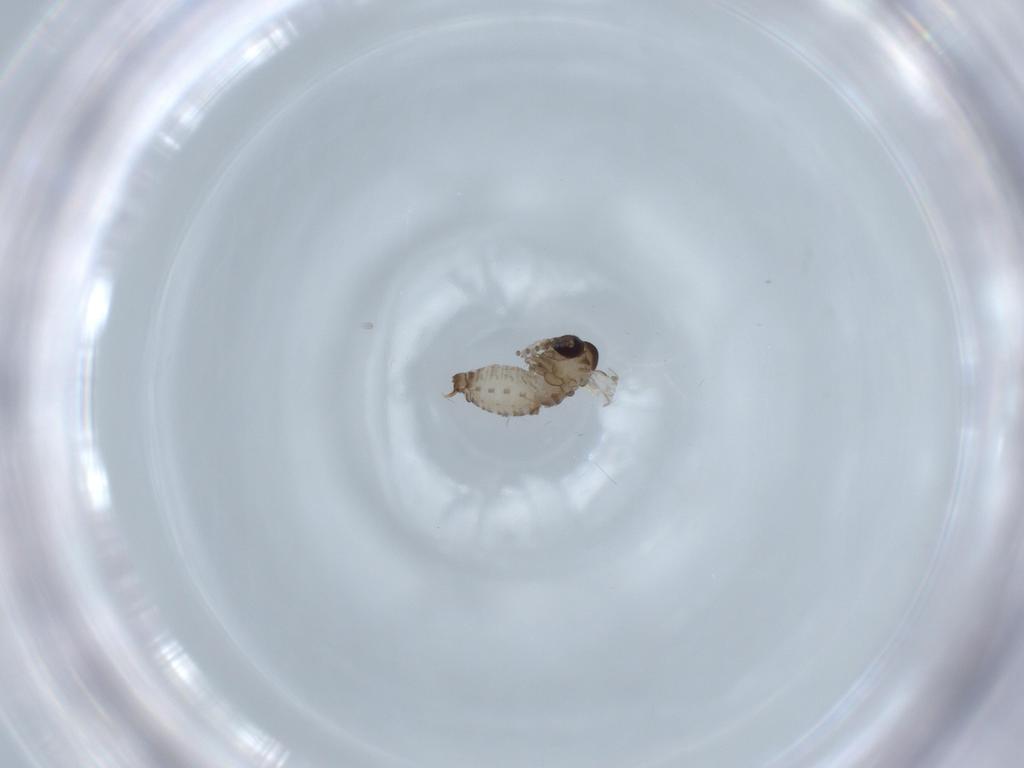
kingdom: Animalia
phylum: Arthropoda
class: Insecta
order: Diptera
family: Psychodidae
